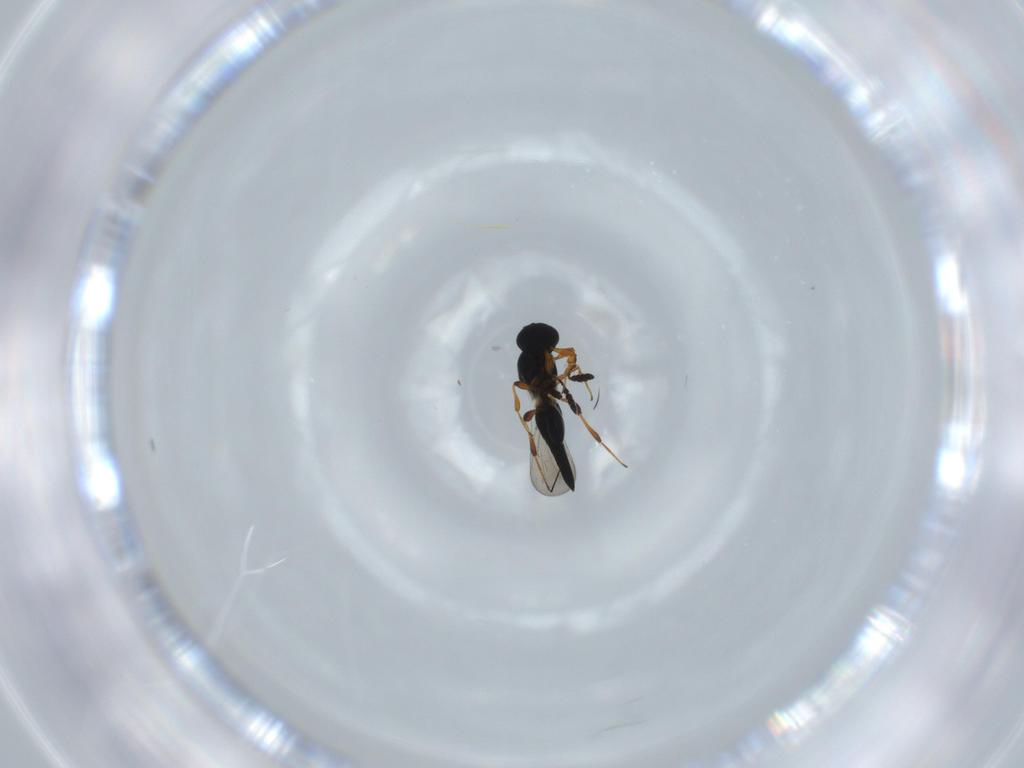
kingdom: Animalia
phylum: Arthropoda
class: Insecta
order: Hymenoptera
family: Platygastridae
